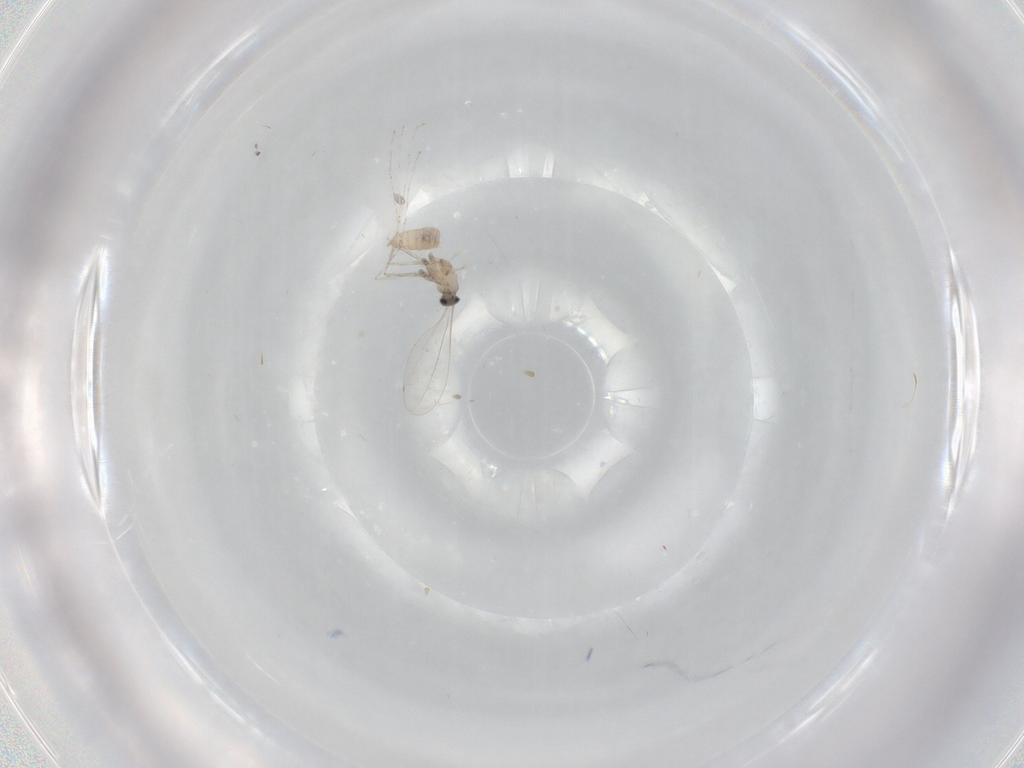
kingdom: Animalia
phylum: Arthropoda
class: Insecta
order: Diptera
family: Cecidomyiidae
